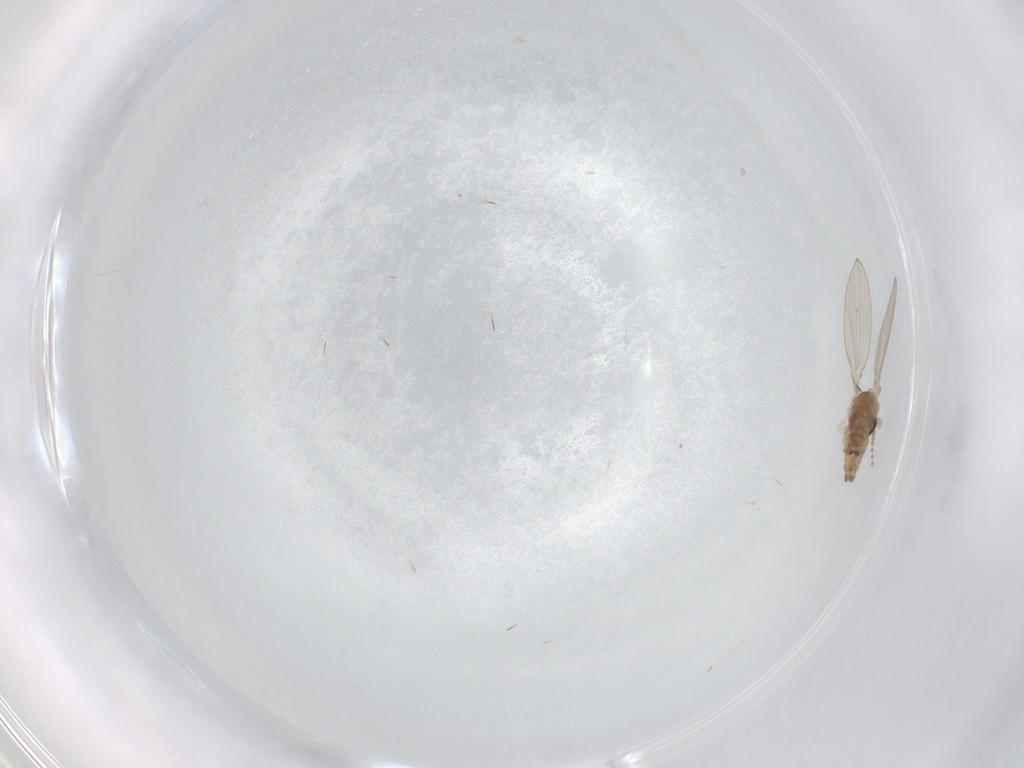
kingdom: Animalia
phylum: Arthropoda
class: Insecta
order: Diptera
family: Psychodidae
